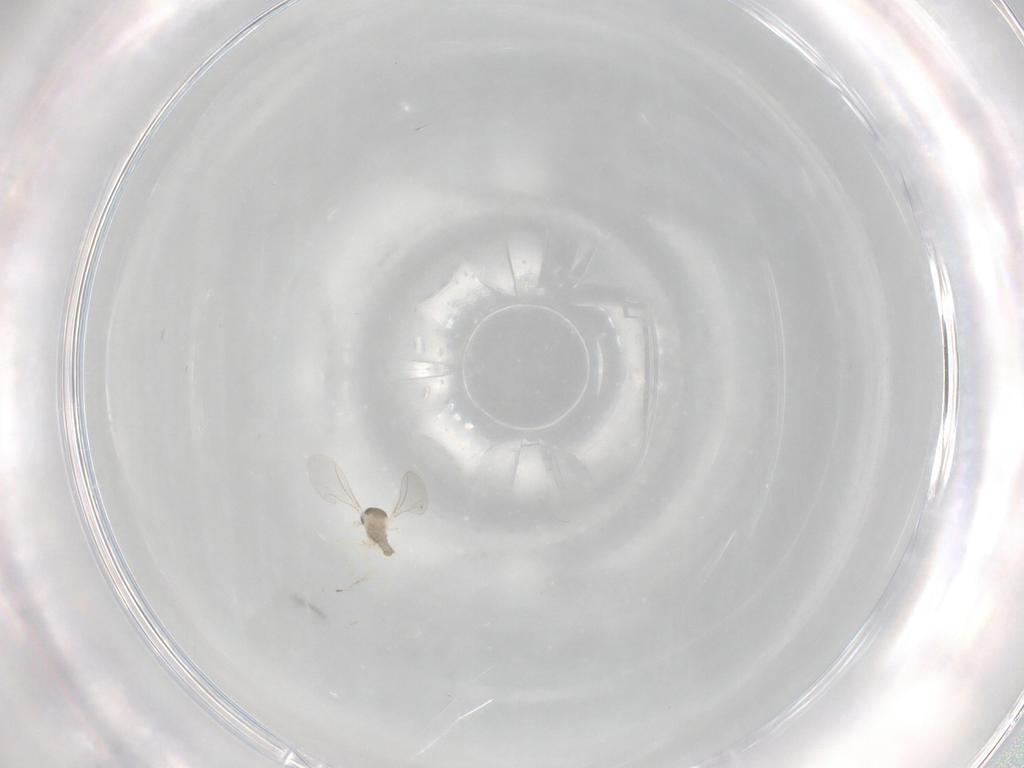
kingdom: Animalia
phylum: Arthropoda
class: Insecta
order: Diptera
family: Cecidomyiidae
